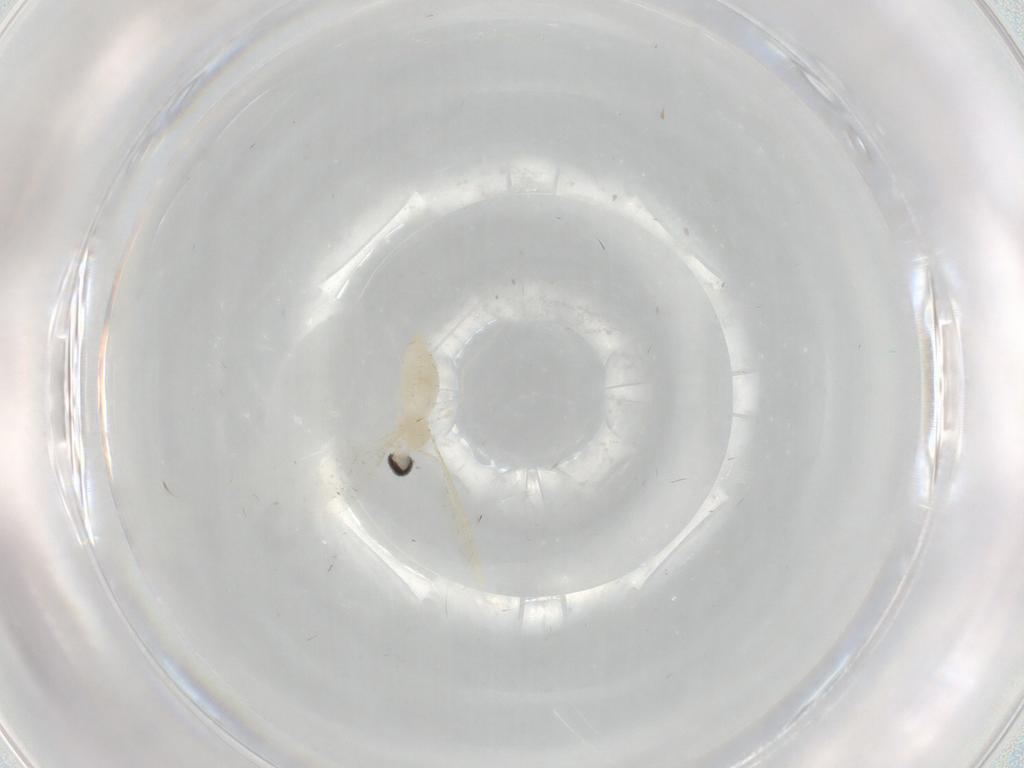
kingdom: Animalia
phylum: Arthropoda
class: Insecta
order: Diptera
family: Cecidomyiidae
